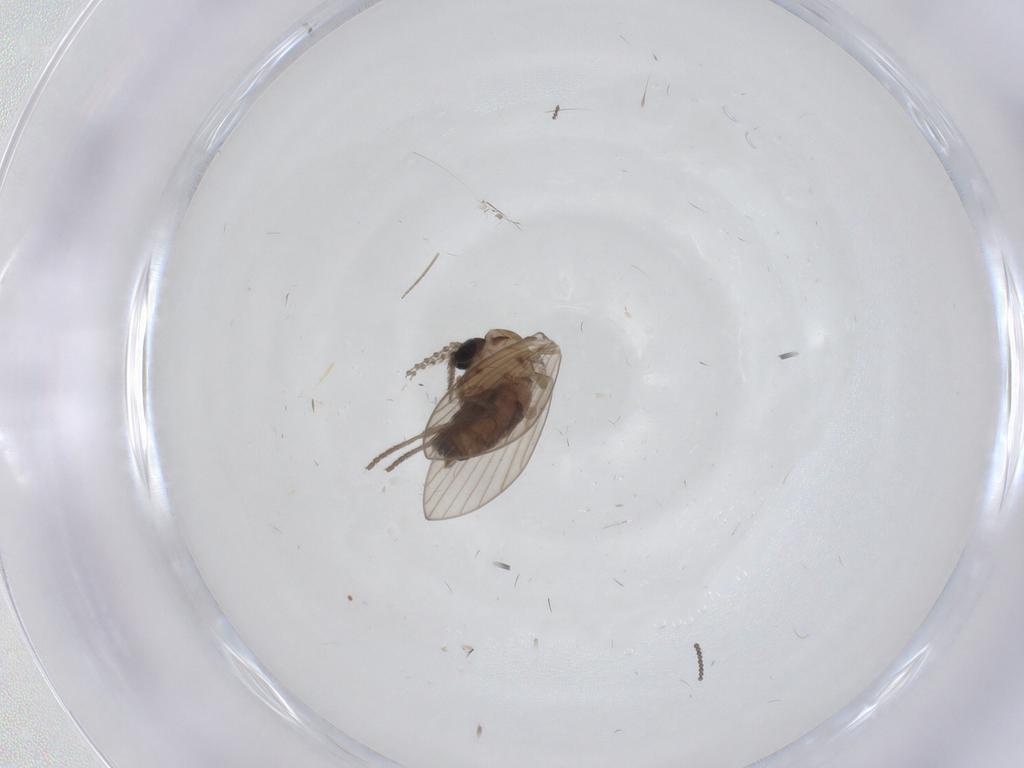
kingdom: Animalia
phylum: Arthropoda
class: Insecta
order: Diptera
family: Psychodidae
